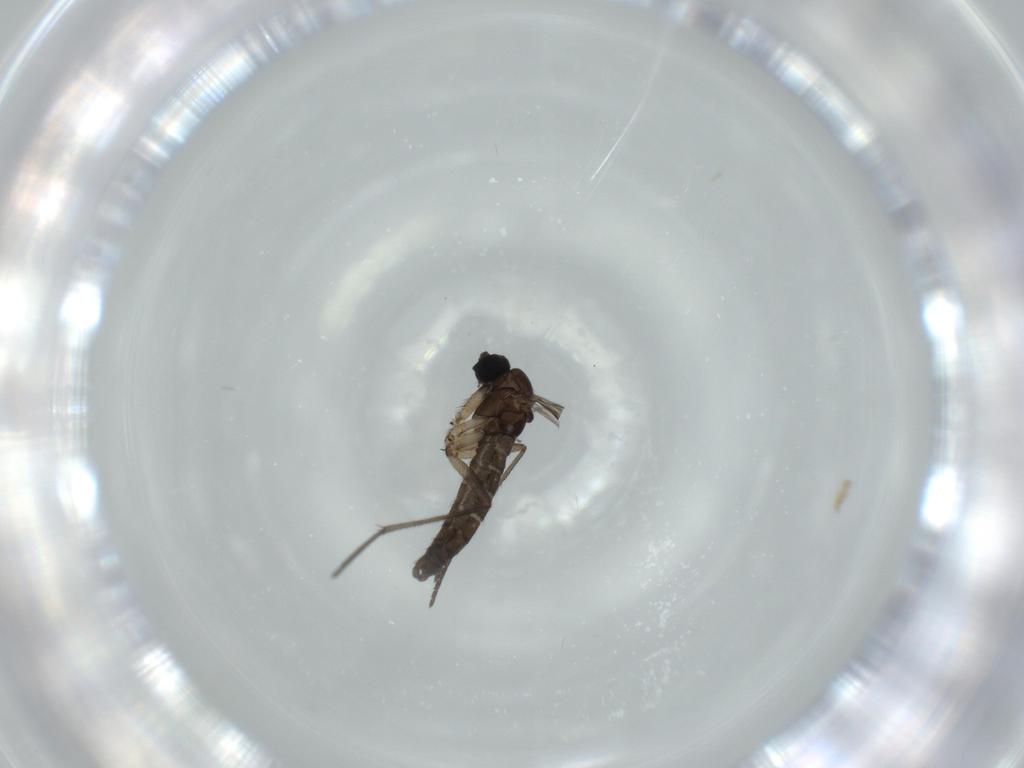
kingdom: Animalia
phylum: Arthropoda
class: Insecta
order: Diptera
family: Sciaridae
